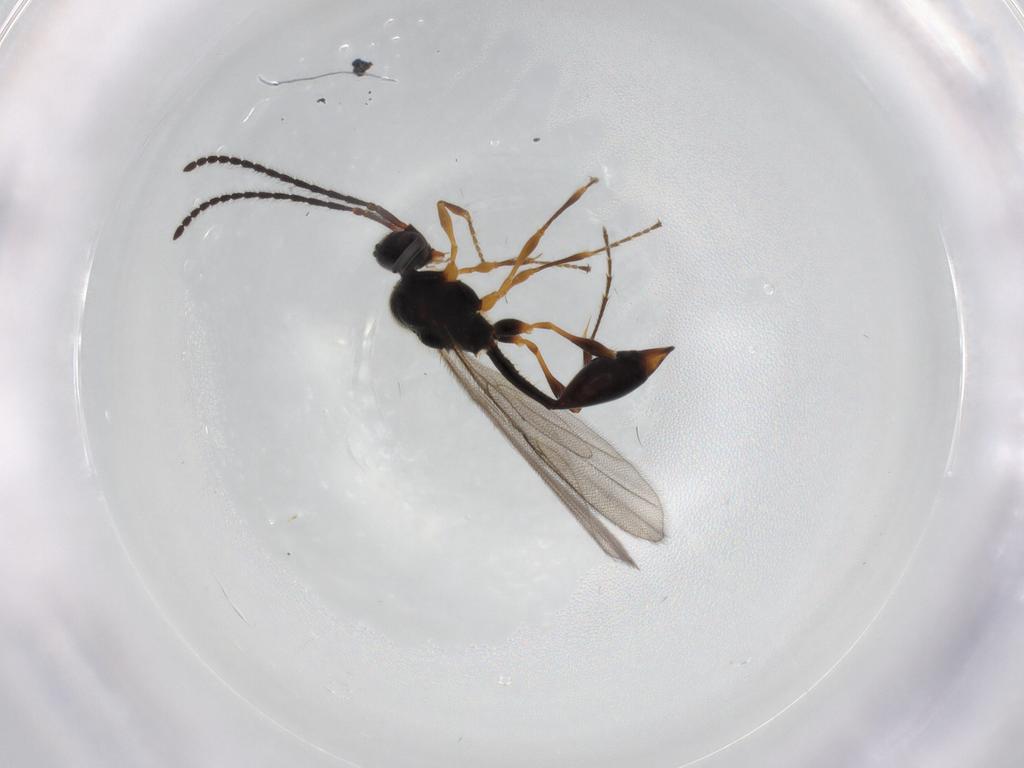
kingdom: Animalia
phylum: Arthropoda
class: Insecta
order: Hymenoptera
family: Diapriidae
